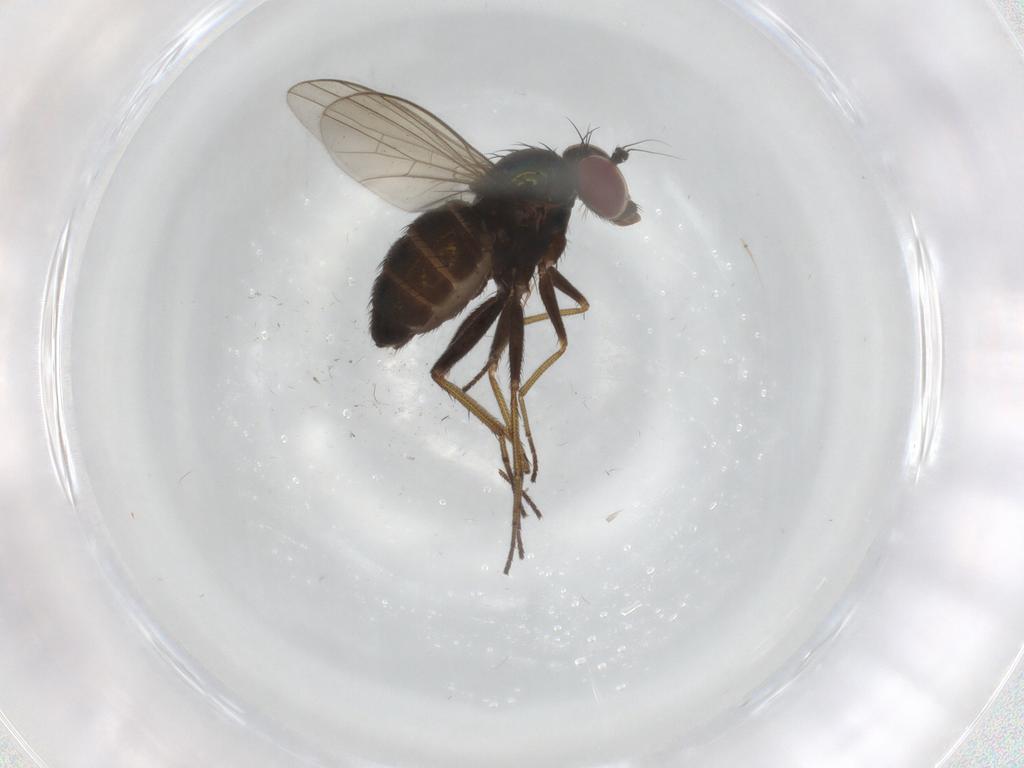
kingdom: Animalia
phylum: Arthropoda
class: Insecta
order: Diptera
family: Dolichopodidae
